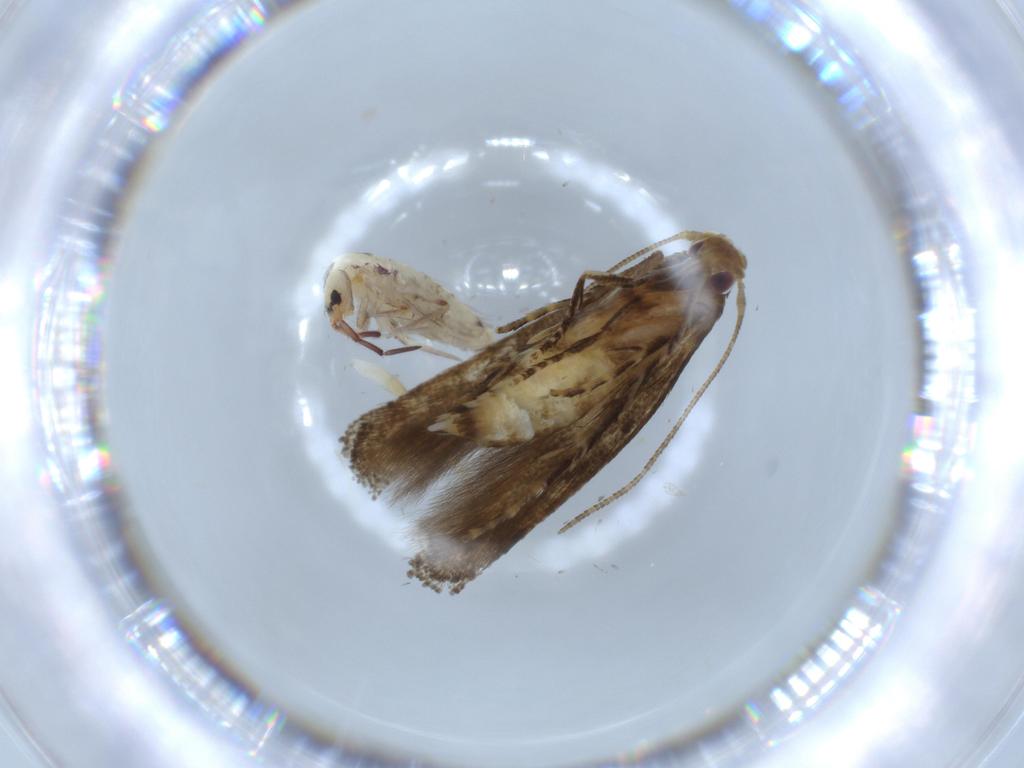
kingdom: Animalia
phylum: Arthropoda
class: Insecta
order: Lepidoptera
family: Momphidae
